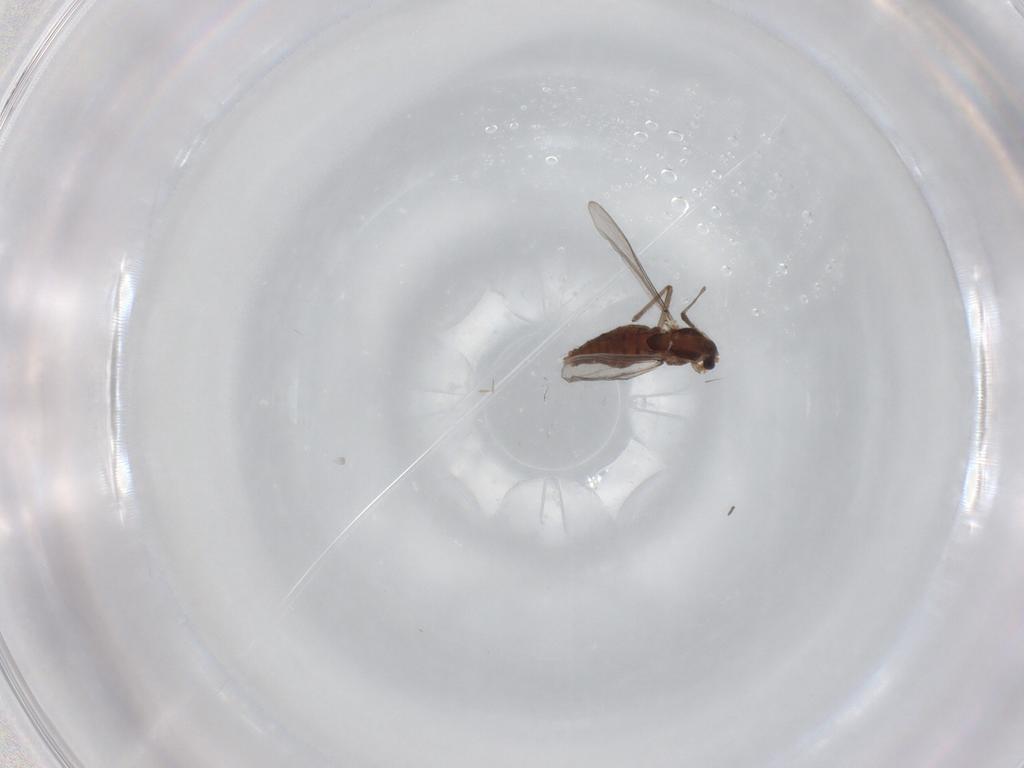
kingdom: Animalia
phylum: Arthropoda
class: Insecta
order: Diptera
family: Chironomidae
